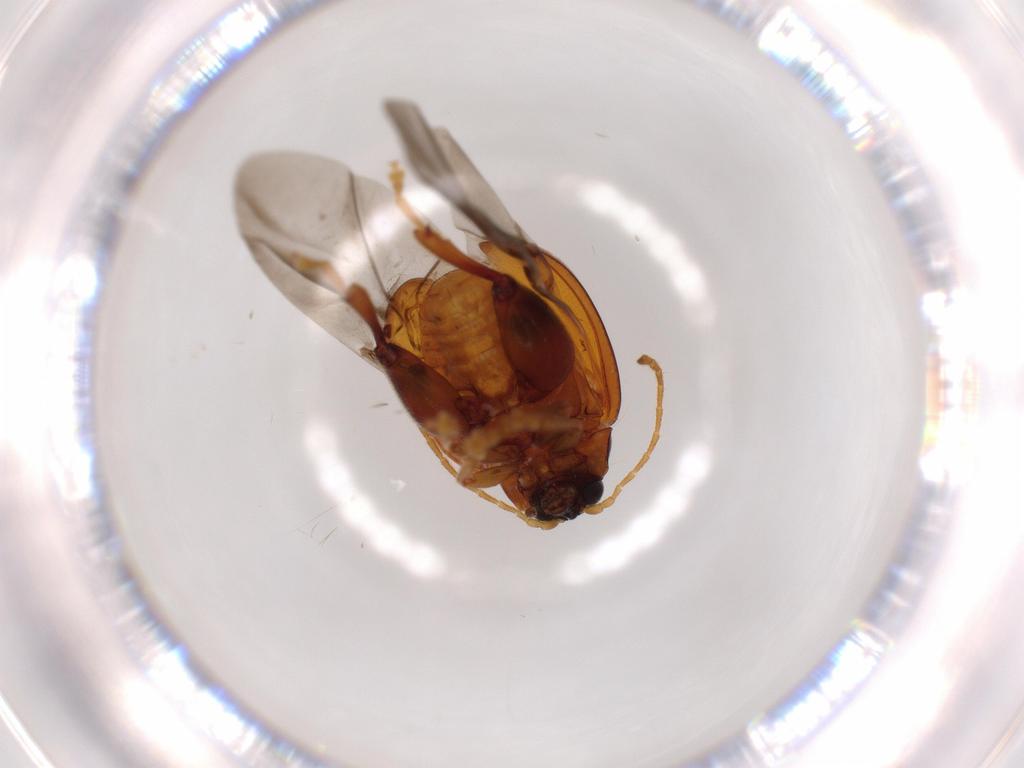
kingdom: Animalia
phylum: Arthropoda
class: Insecta
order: Coleoptera
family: Chrysomelidae
